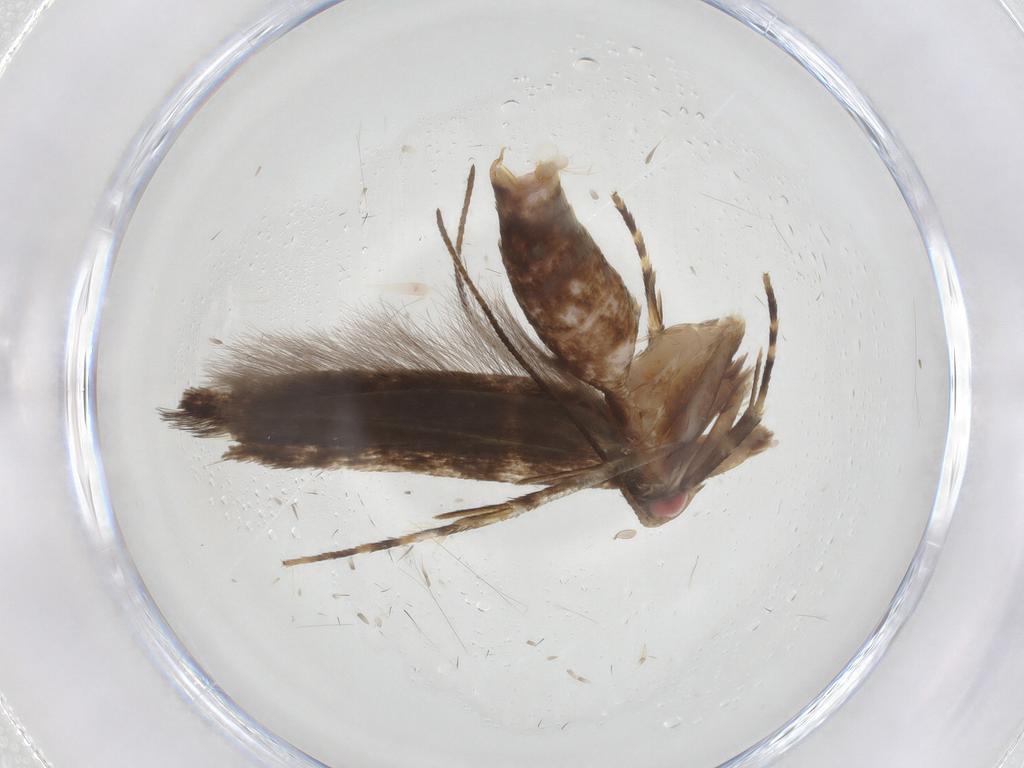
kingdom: Animalia
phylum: Arthropoda
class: Insecta
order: Lepidoptera
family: Cosmopterigidae
